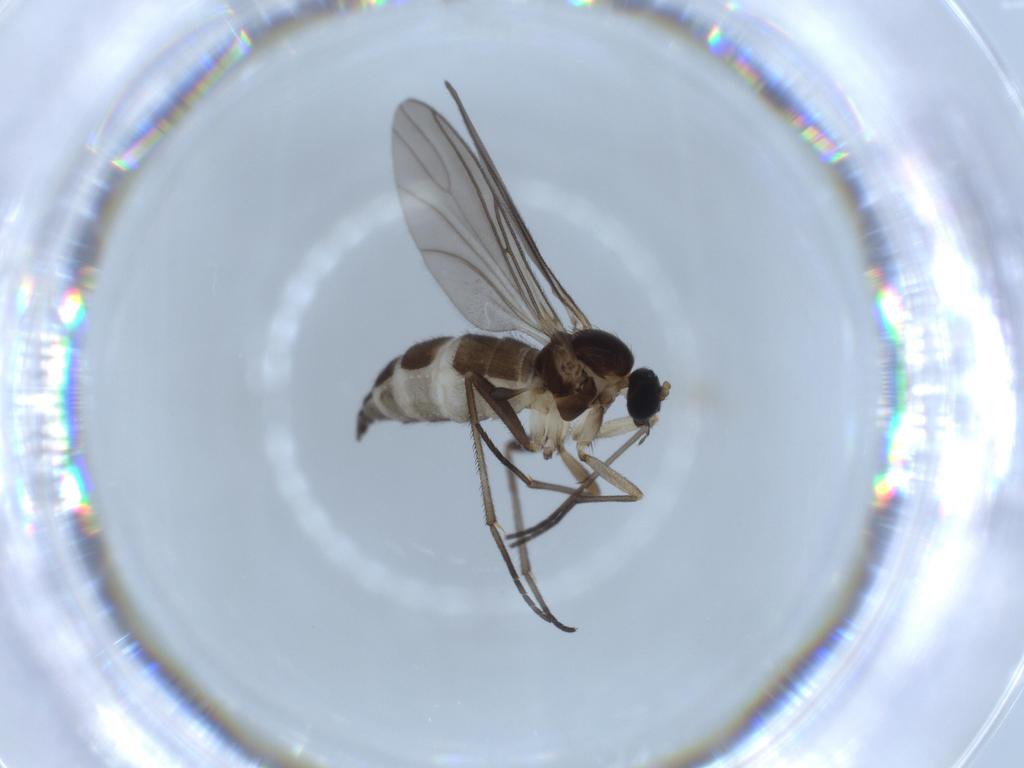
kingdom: Animalia
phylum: Arthropoda
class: Insecta
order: Diptera
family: Sciaridae
